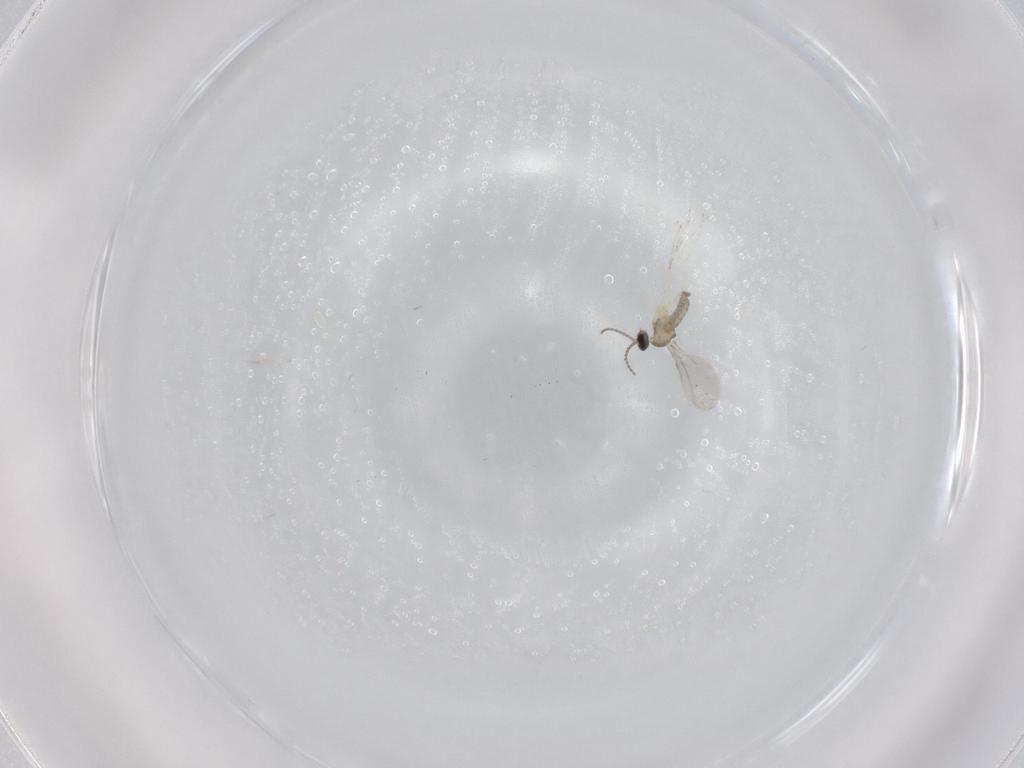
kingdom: Animalia
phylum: Arthropoda
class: Insecta
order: Diptera
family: Cecidomyiidae
